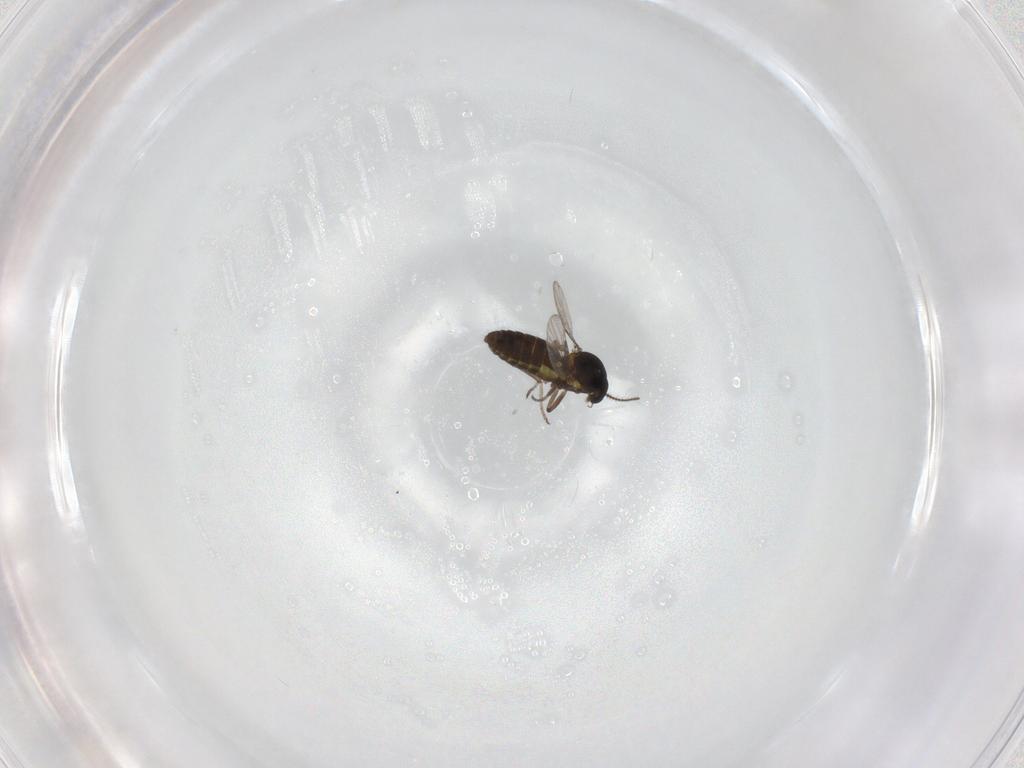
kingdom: Animalia
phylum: Arthropoda
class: Insecta
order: Diptera
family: Ceratopogonidae
